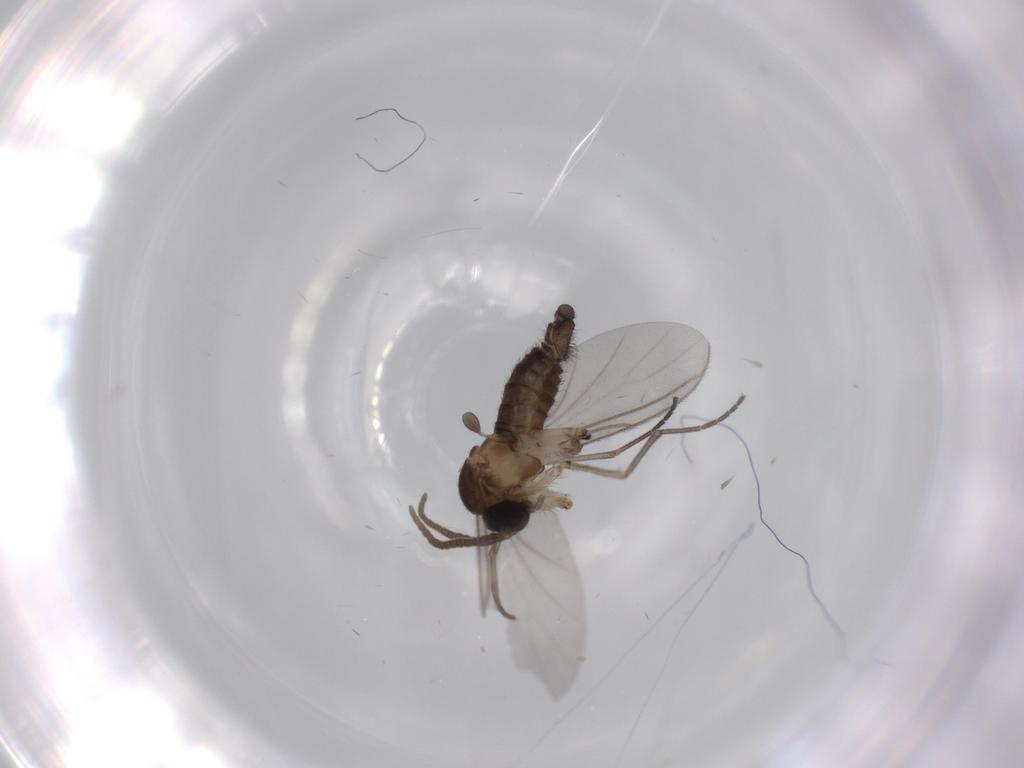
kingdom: Animalia
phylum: Arthropoda
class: Insecta
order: Diptera
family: Sciaridae
